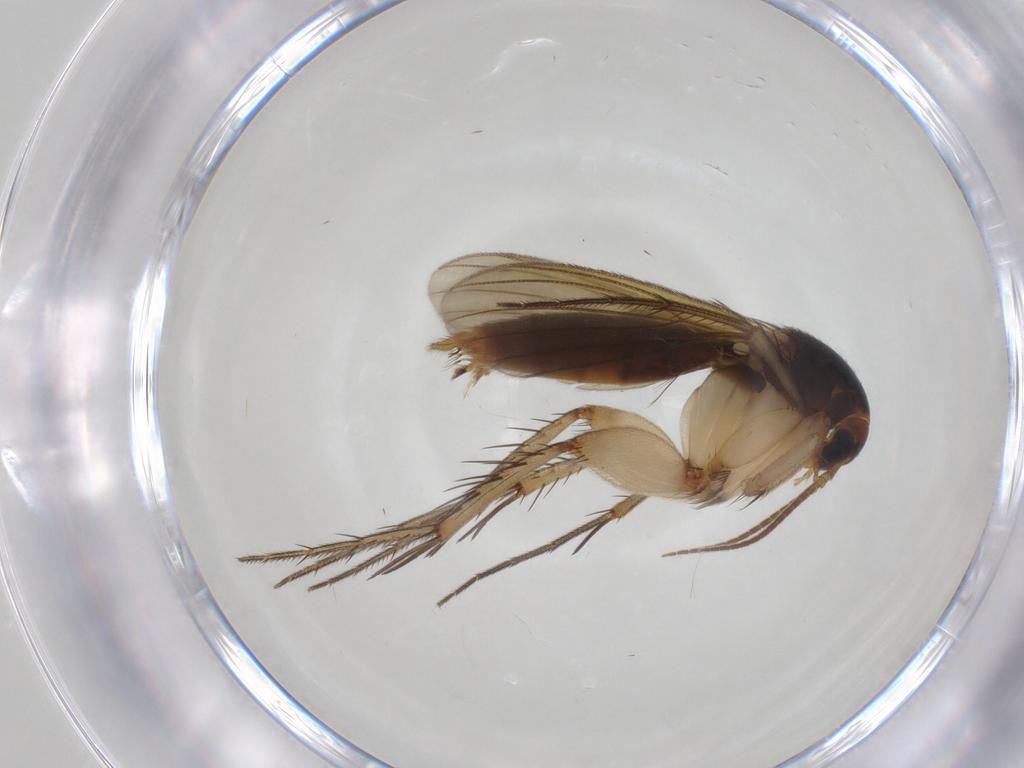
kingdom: Animalia
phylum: Arthropoda
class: Insecta
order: Diptera
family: Mycetophilidae
